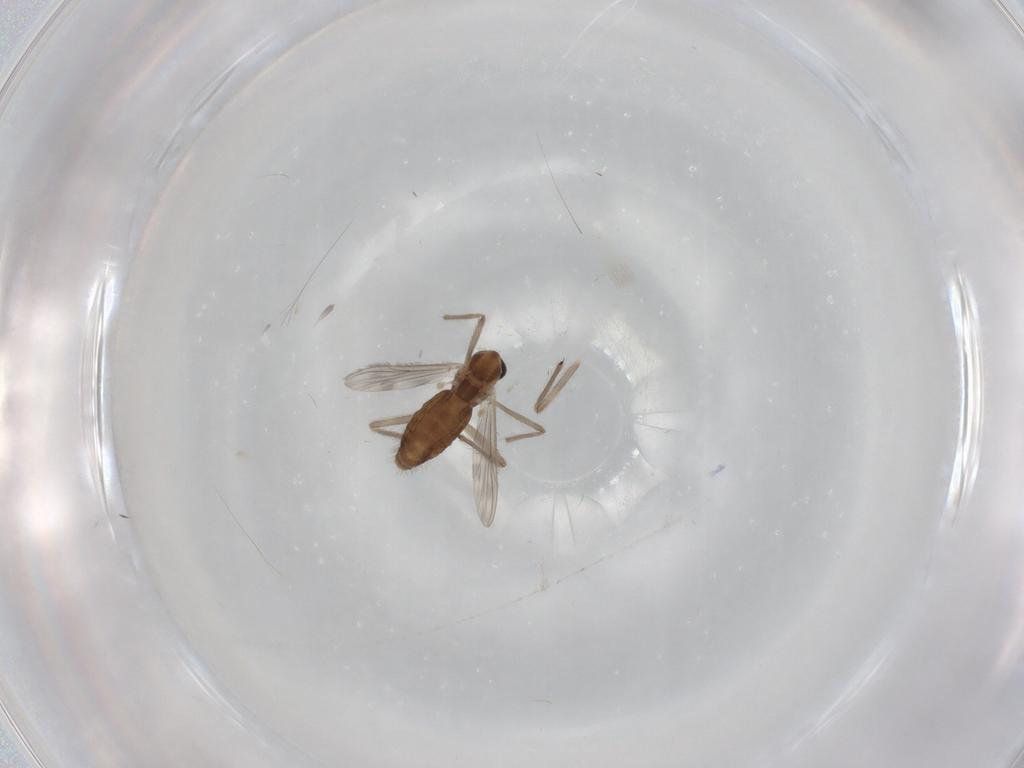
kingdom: Animalia
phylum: Arthropoda
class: Insecta
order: Diptera
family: Chironomidae
